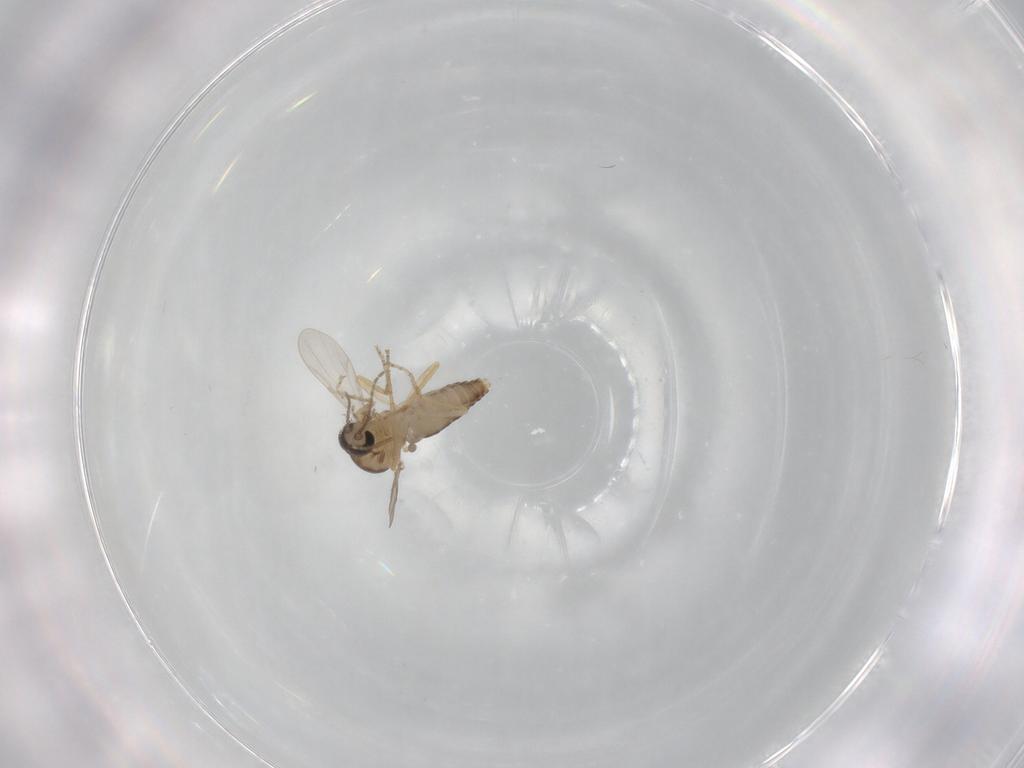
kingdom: Animalia
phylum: Arthropoda
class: Insecta
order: Diptera
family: Ceratopogonidae
